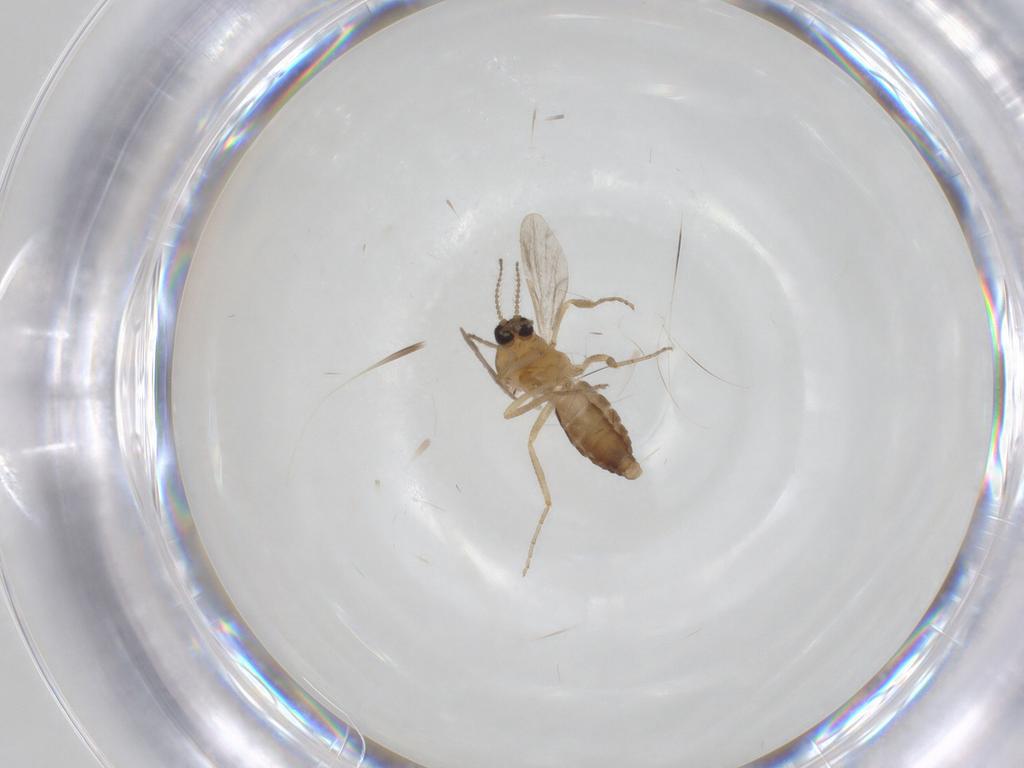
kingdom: Animalia
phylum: Arthropoda
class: Insecta
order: Diptera
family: Ceratopogonidae
